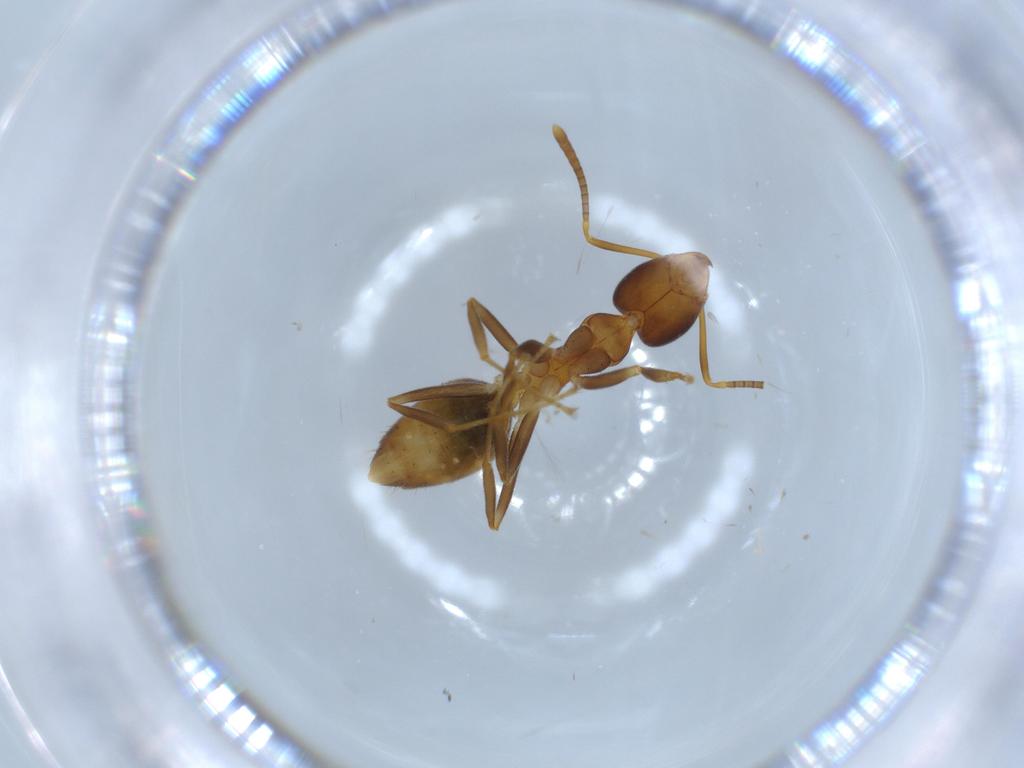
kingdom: Animalia
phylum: Arthropoda
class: Insecta
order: Hymenoptera
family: Formicidae
